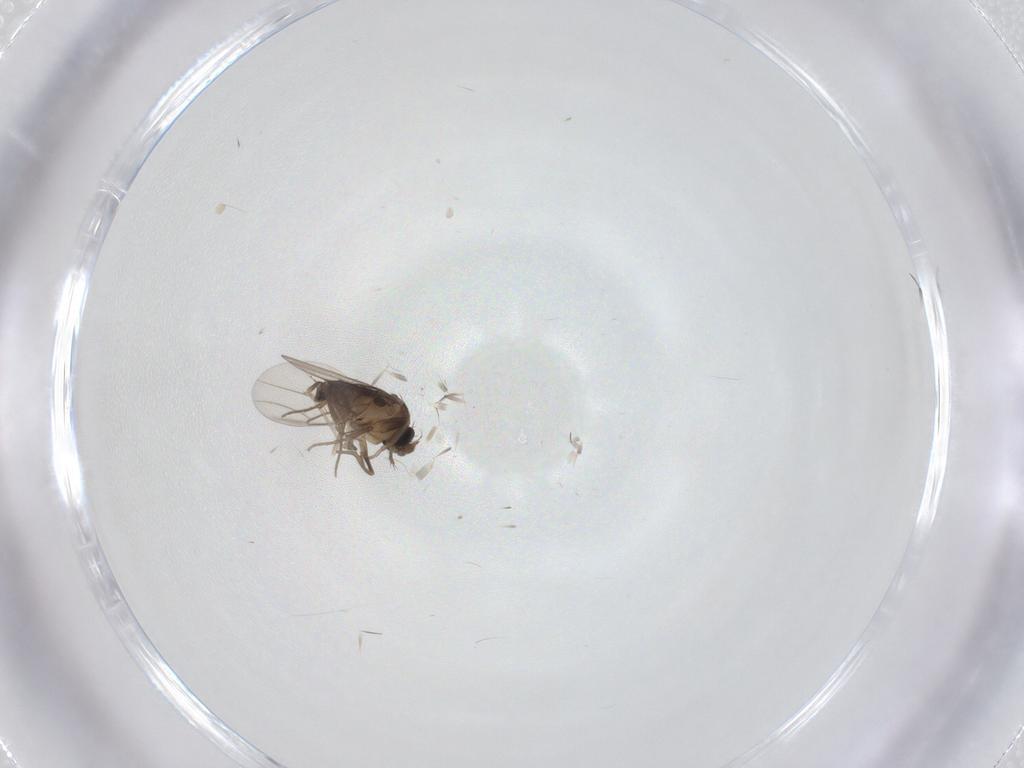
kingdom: Animalia
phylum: Arthropoda
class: Insecta
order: Diptera
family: Phoridae
